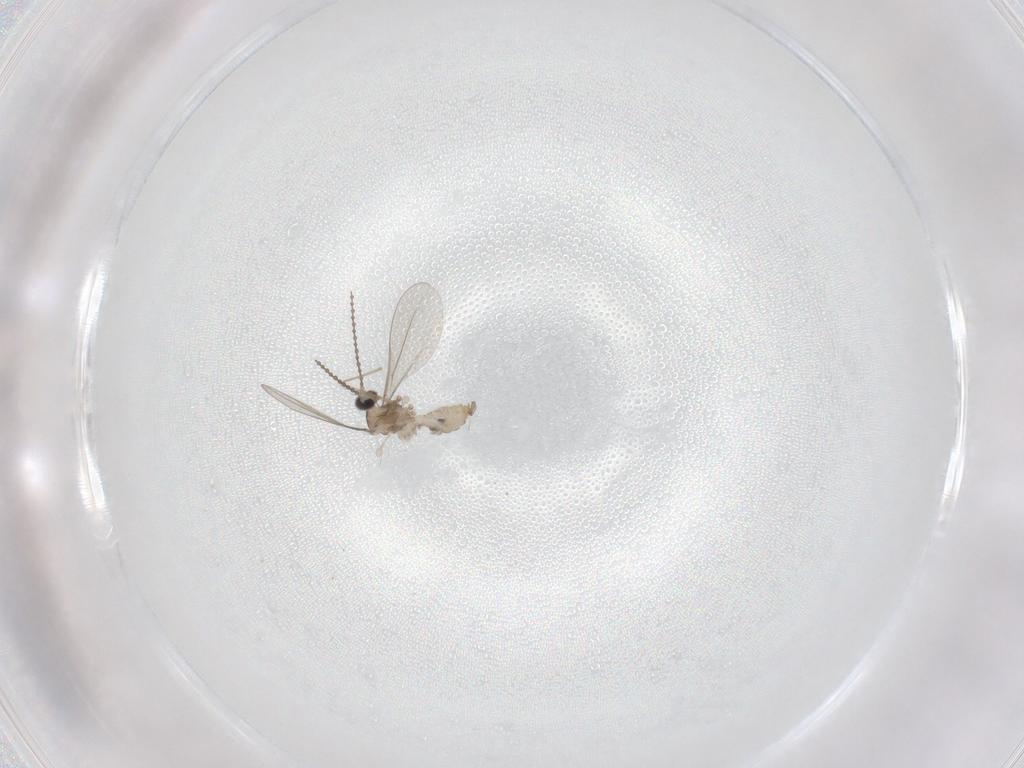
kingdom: Animalia
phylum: Arthropoda
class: Insecta
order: Diptera
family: Cecidomyiidae
